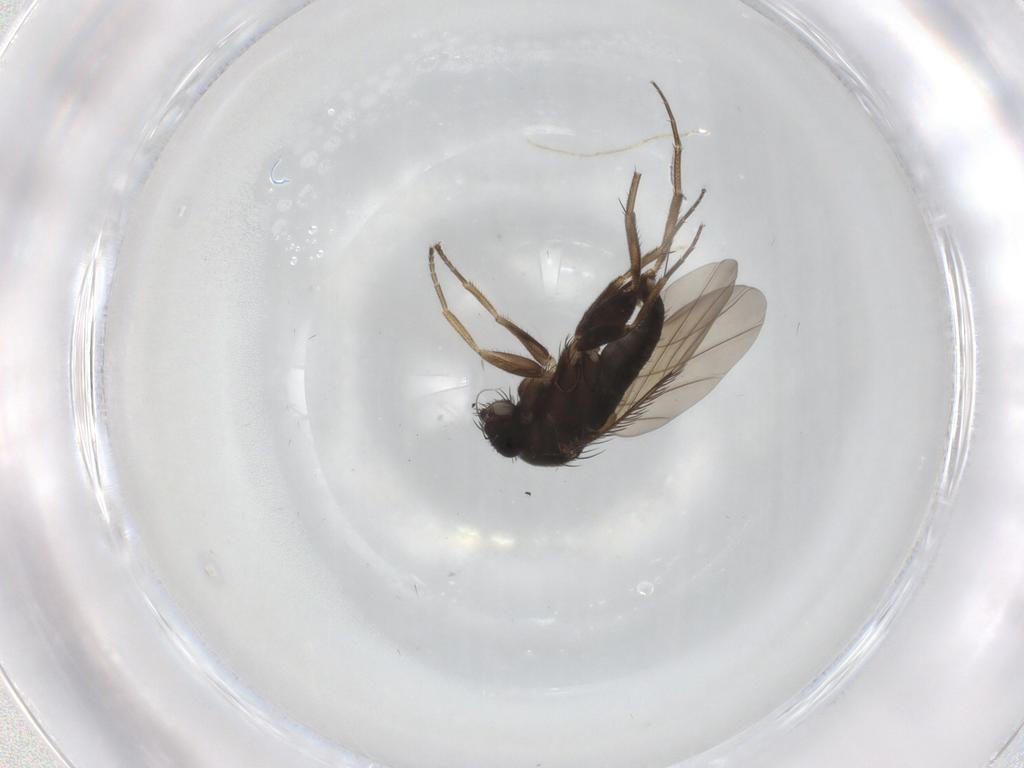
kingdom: Animalia
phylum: Arthropoda
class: Insecta
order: Diptera
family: Phoridae
